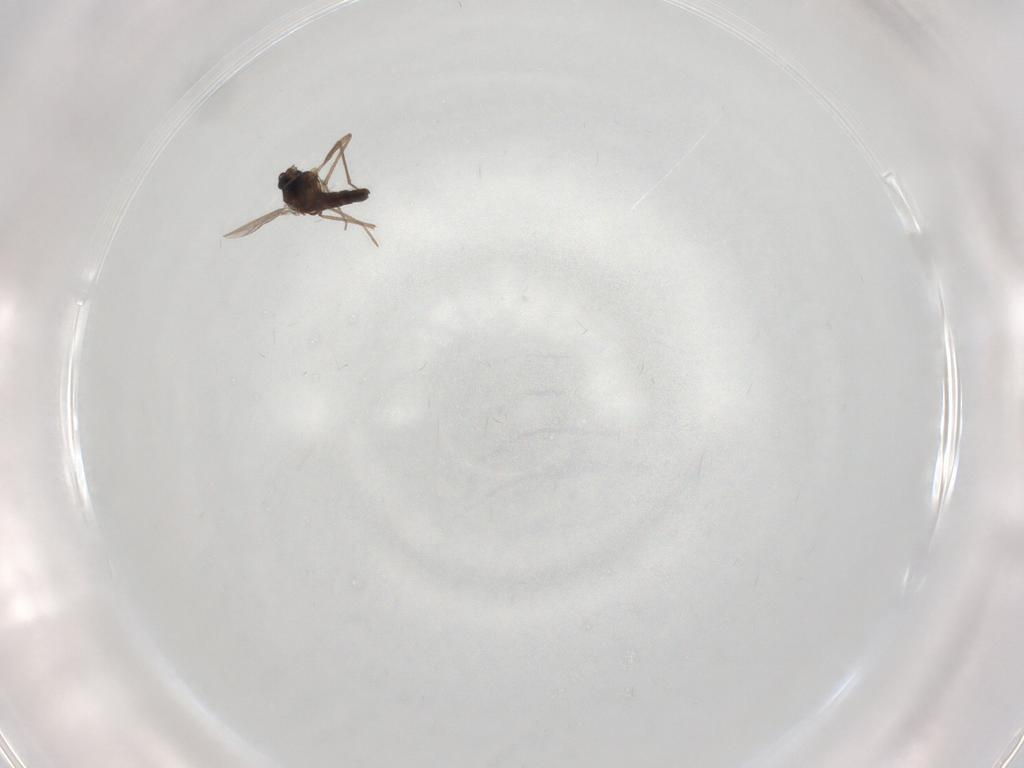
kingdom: Animalia
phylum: Arthropoda
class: Insecta
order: Diptera
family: Chironomidae
